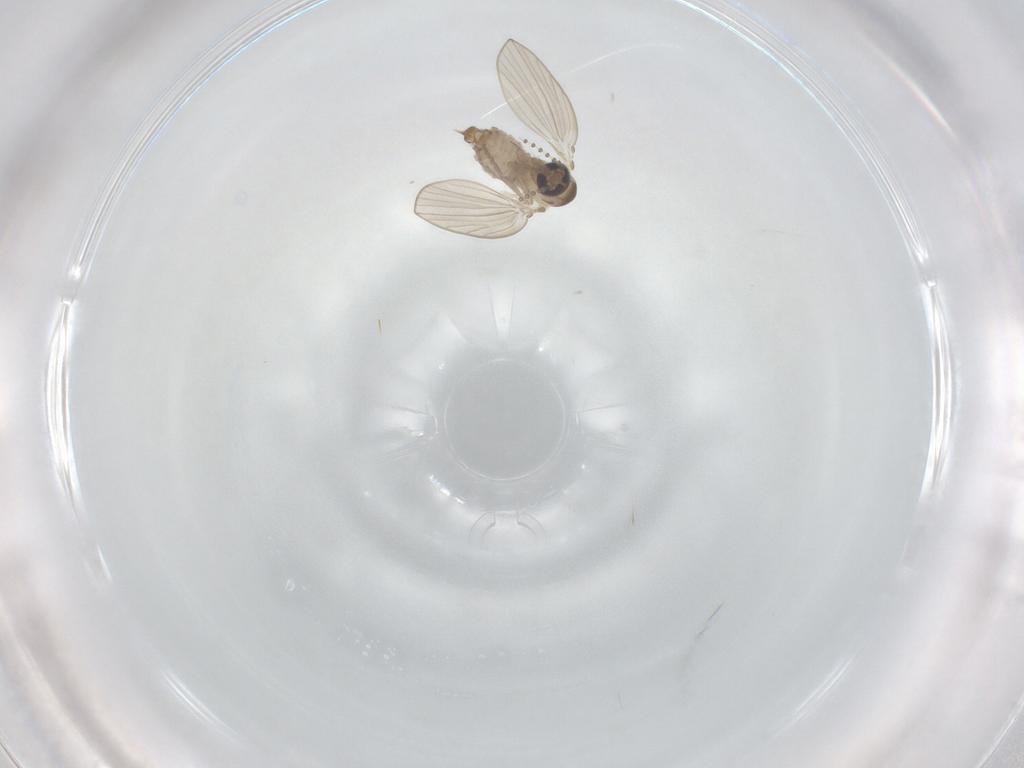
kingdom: Animalia
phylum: Arthropoda
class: Insecta
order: Diptera
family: Psychodidae
